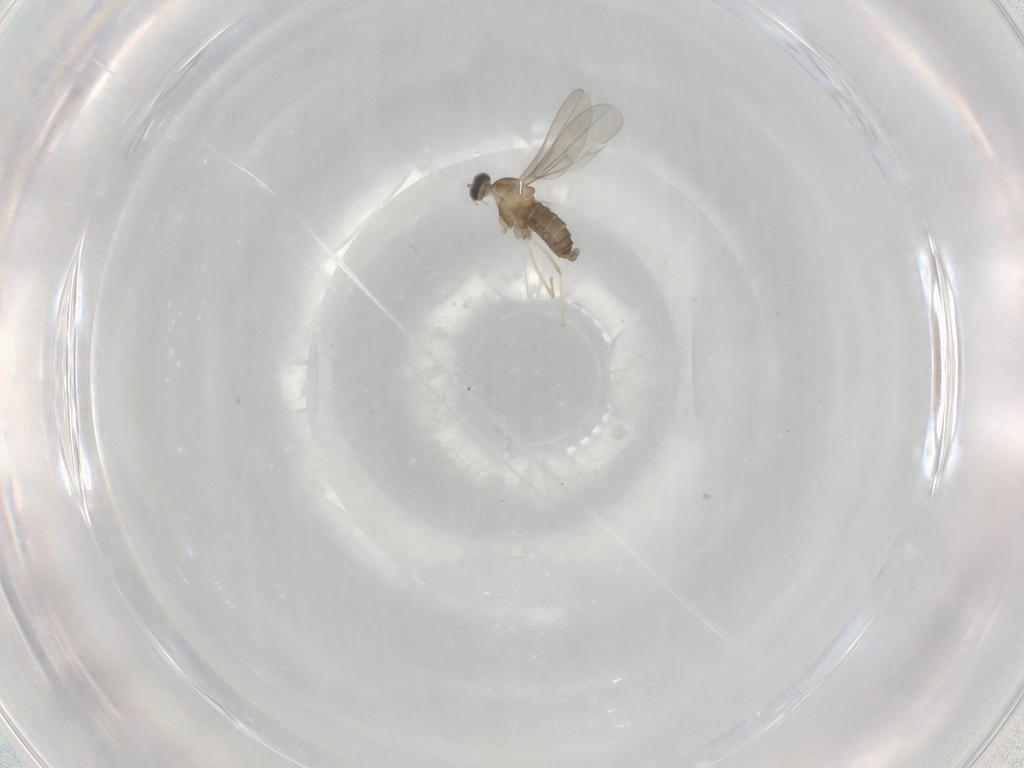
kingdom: Animalia
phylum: Arthropoda
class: Insecta
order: Diptera
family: Cecidomyiidae
